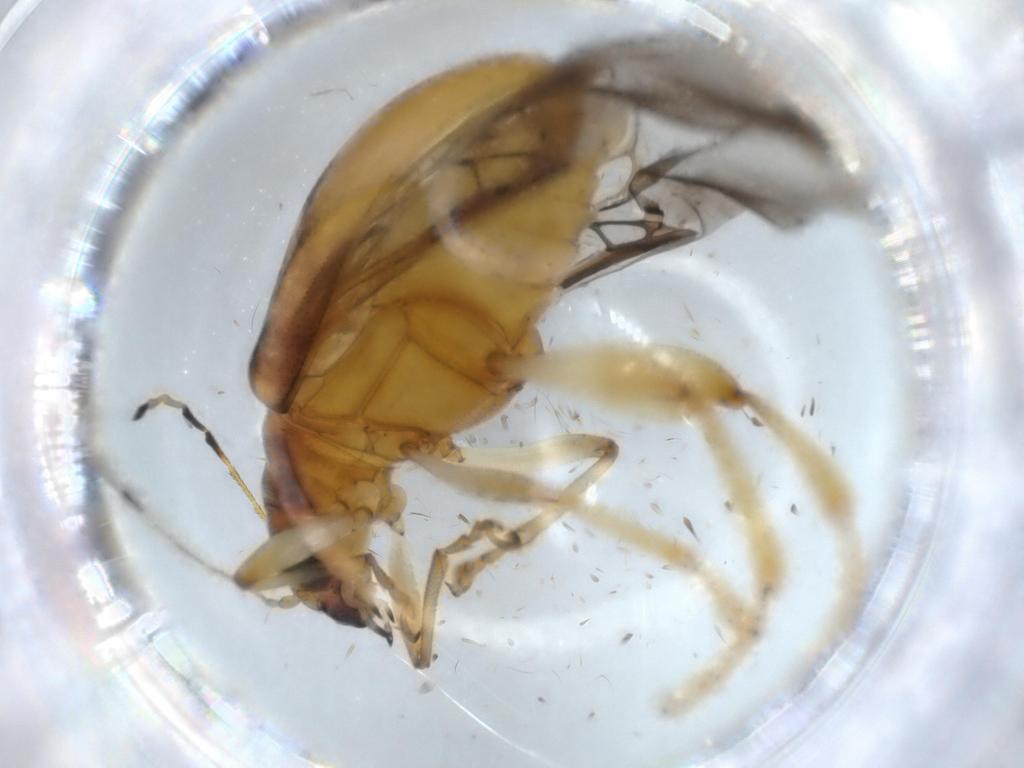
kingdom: Animalia
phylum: Arthropoda
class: Insecta
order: Coleoptera
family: Chrysomelidae
